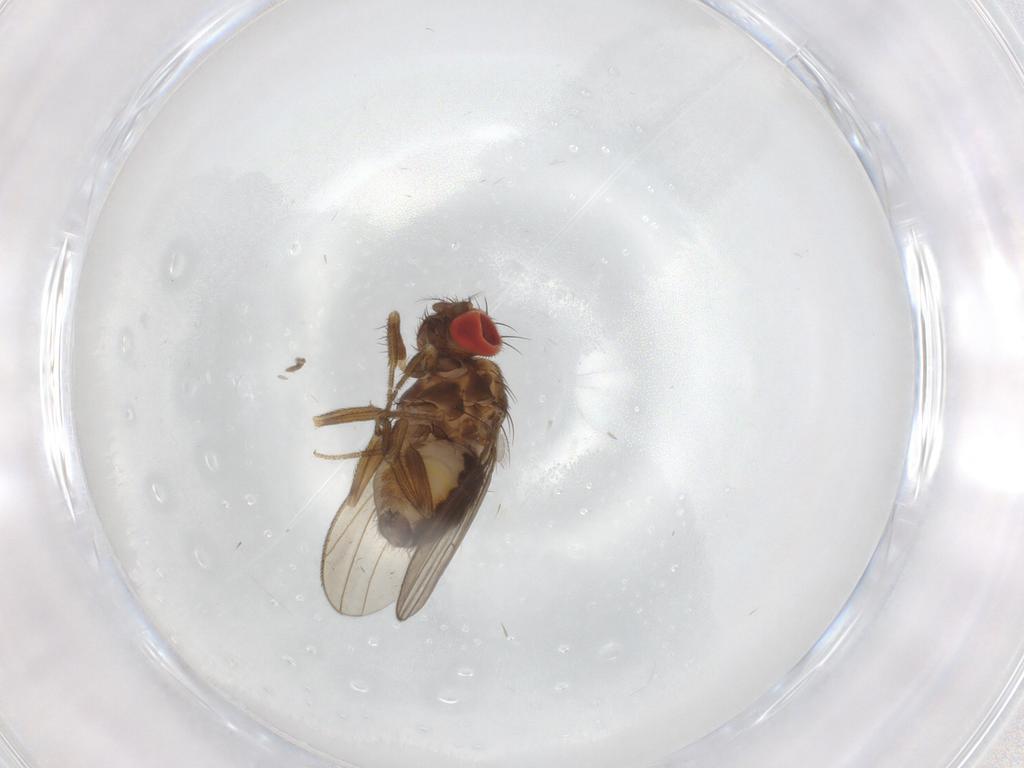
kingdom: Animalia
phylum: Arthropoda
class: Insecta
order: Diptera
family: Drosophilidae
